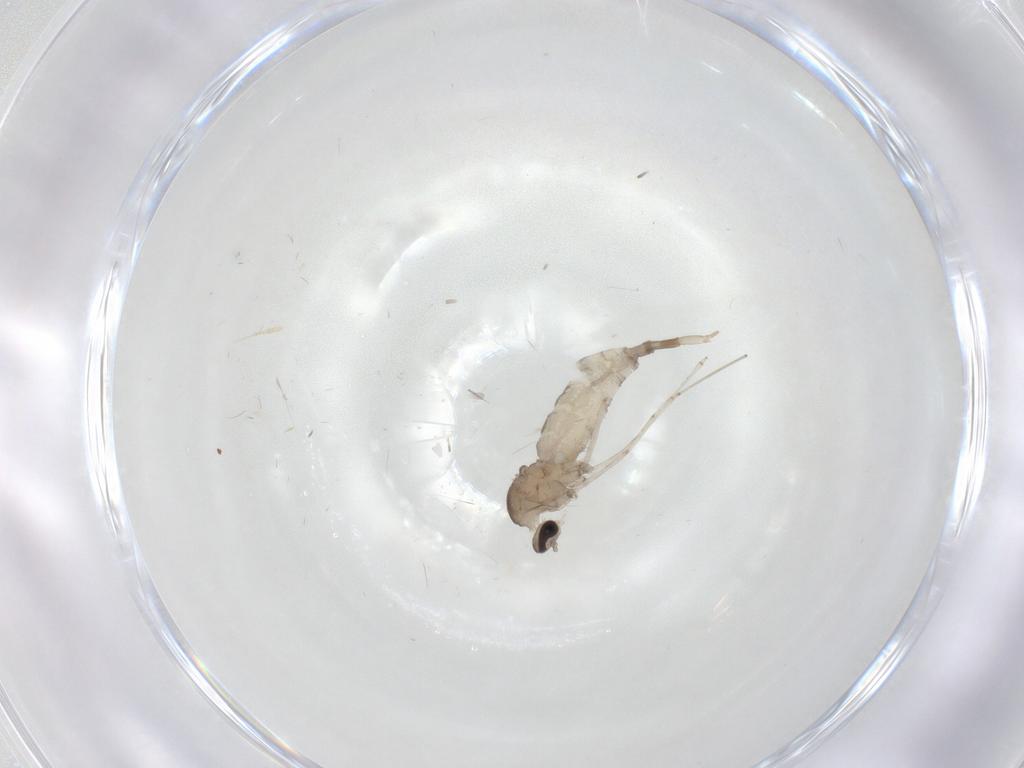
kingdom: Animalia
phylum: Arthropoda
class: Insecta
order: Diptera
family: Cecidomyiidae
